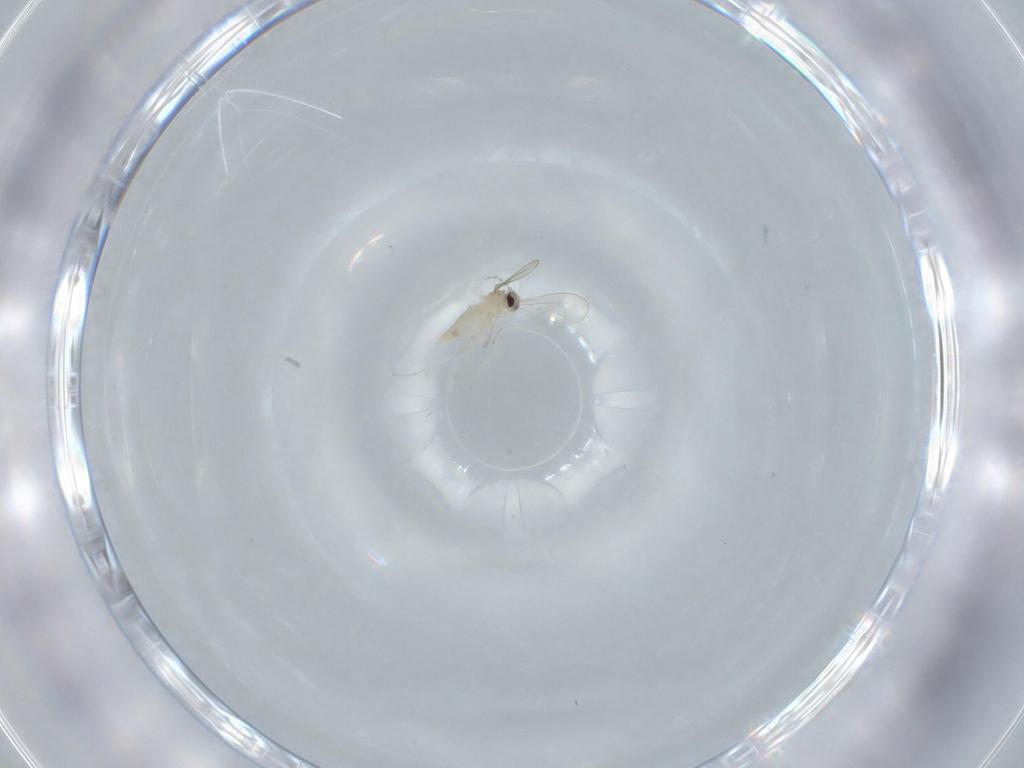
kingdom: Animalia
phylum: Arthropoda
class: Insecta
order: Diptera
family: Cecidomyiidae
